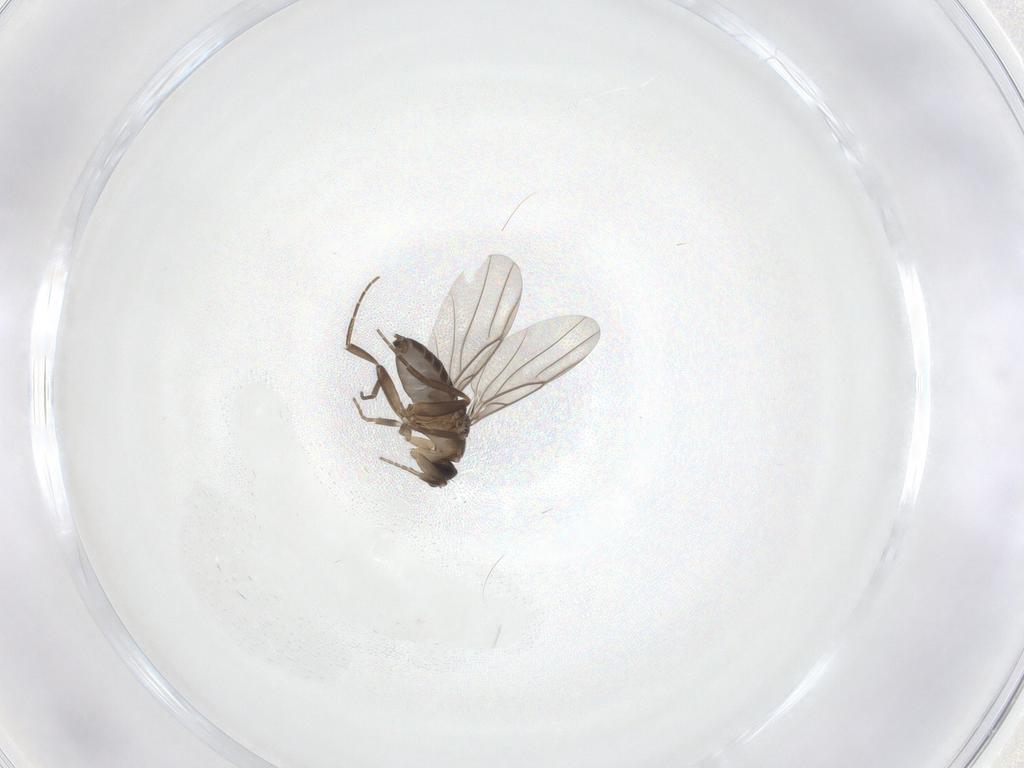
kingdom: Animalia
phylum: Arthropoda
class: Insecta
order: Diptera
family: Phoridae
